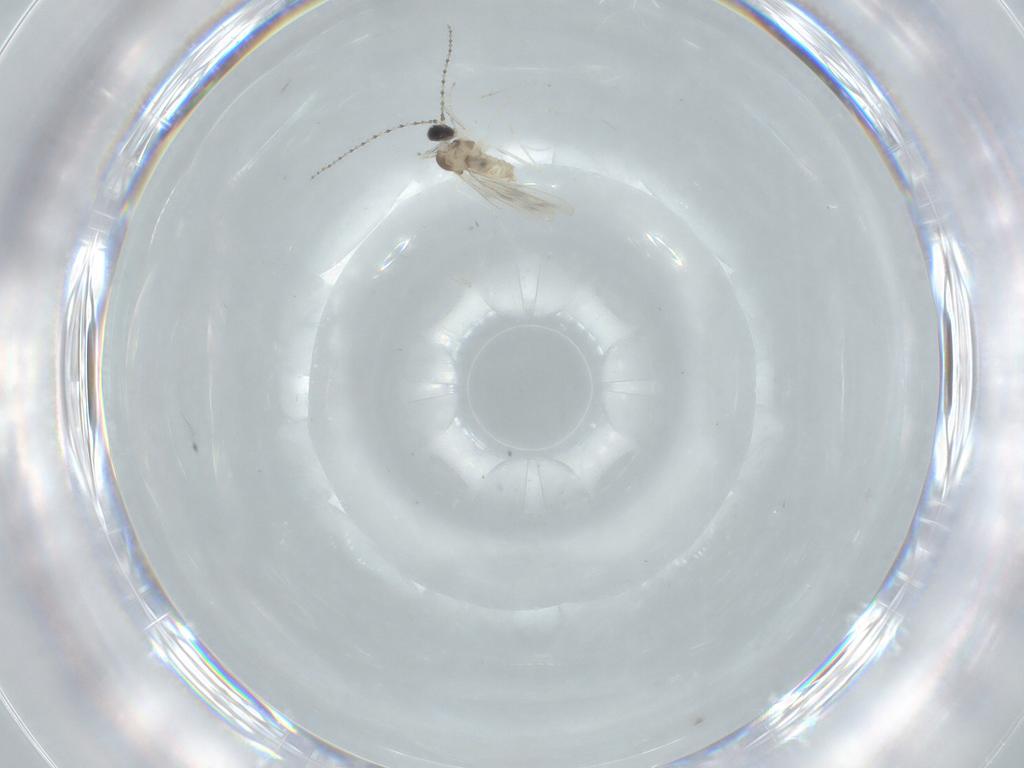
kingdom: Animalia
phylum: Arthropoda
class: Insecta
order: Diptera
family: Cecidomyiidae
